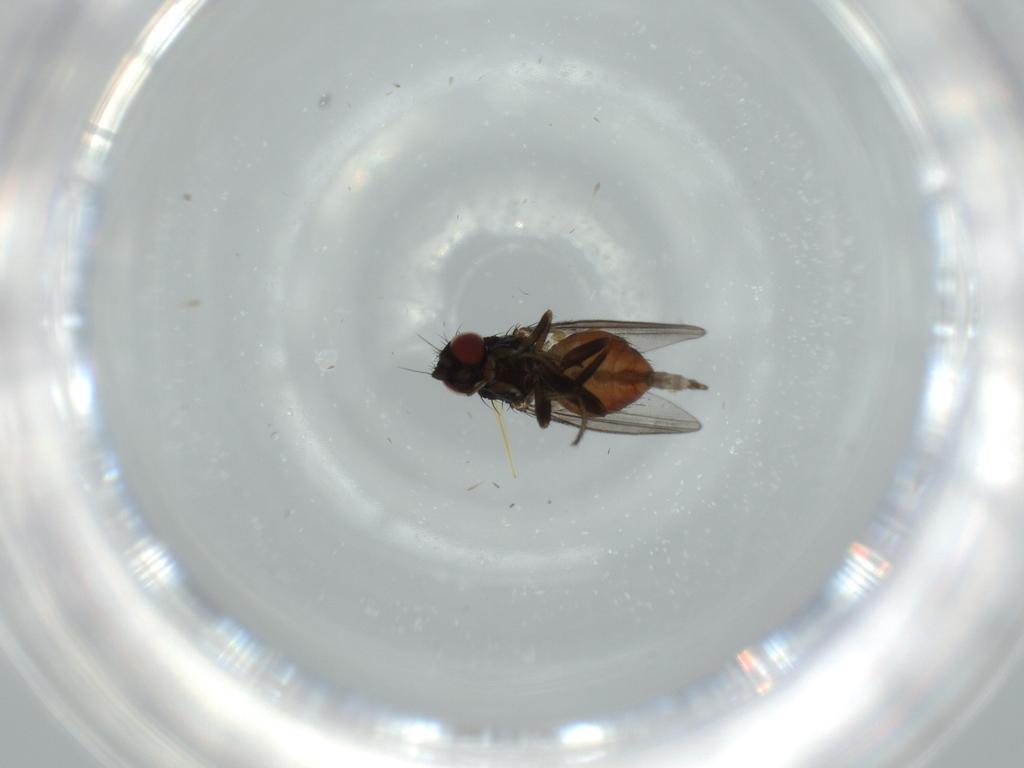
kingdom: Animalia
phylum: Arthropoda
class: Insecta
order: Diptera
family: Milichiidae
